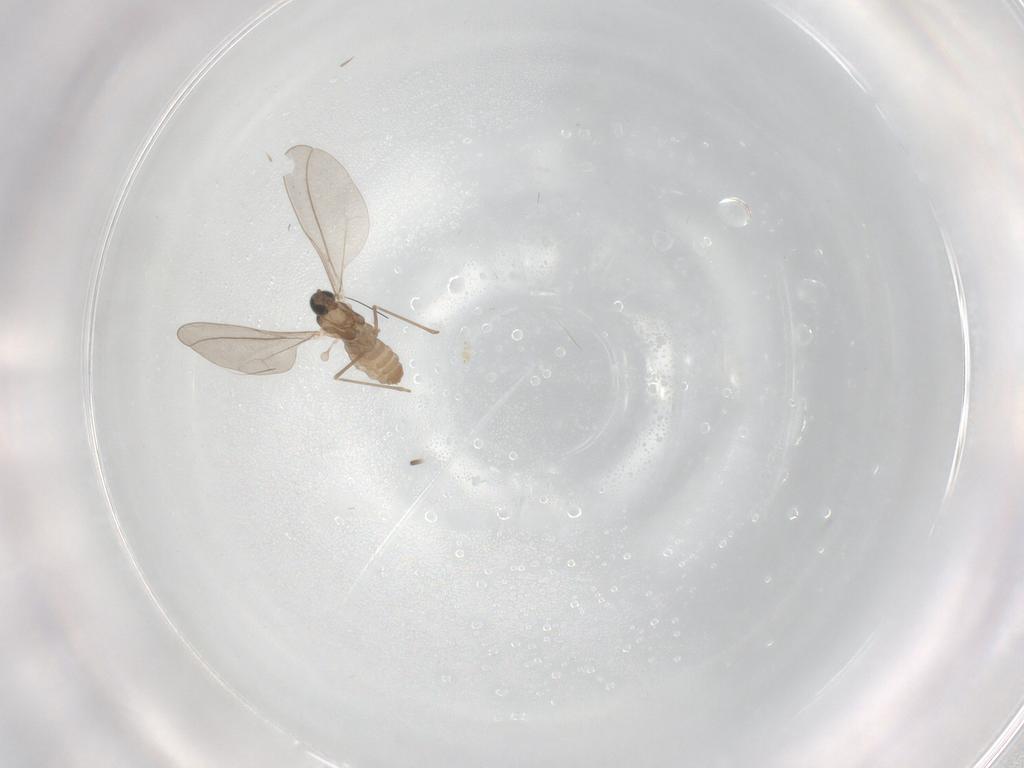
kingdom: Animalia
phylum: Arthropoda
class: Insecta
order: Diptera
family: Cecidomyiidae
